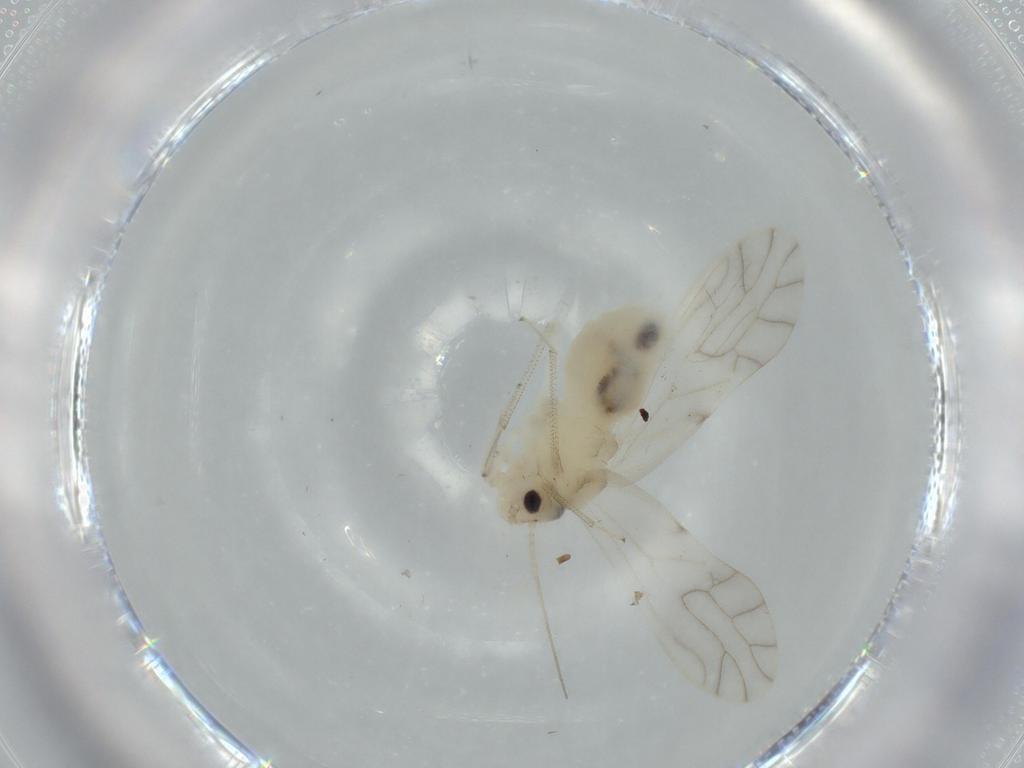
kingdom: Animalia
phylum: Arthropoda
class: Insecta
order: Psocodea
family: Caeciliusidae
